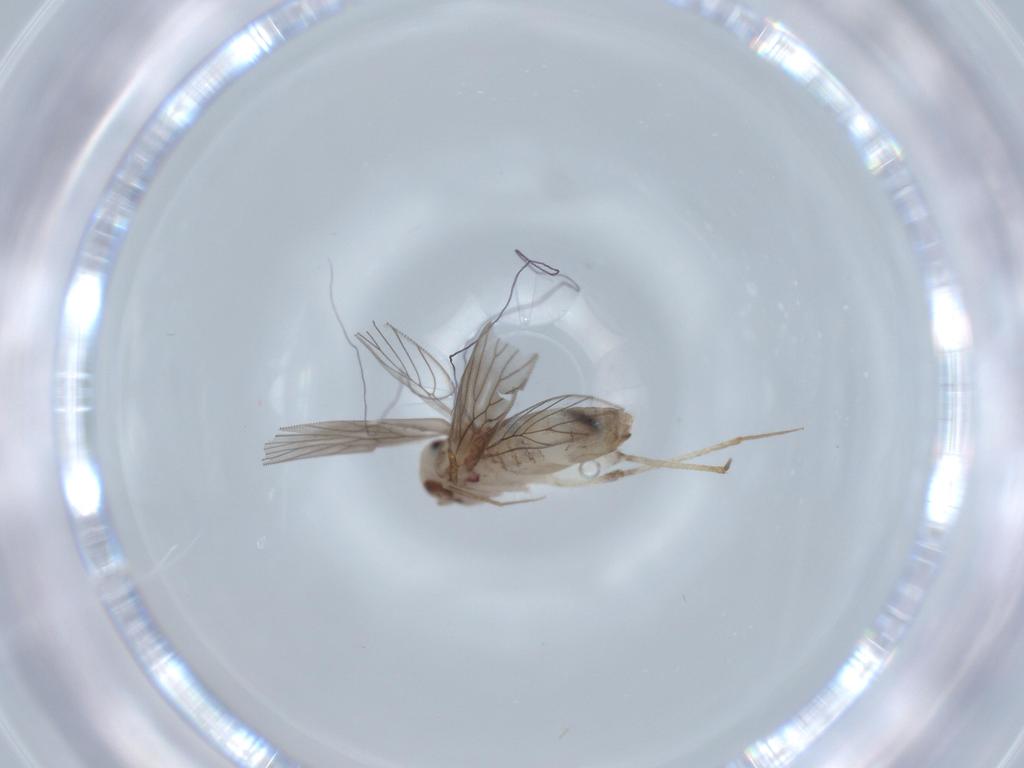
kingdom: Animalia
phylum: Arthropoda
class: Insecta
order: Psocodea
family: Lepidopsocidae
